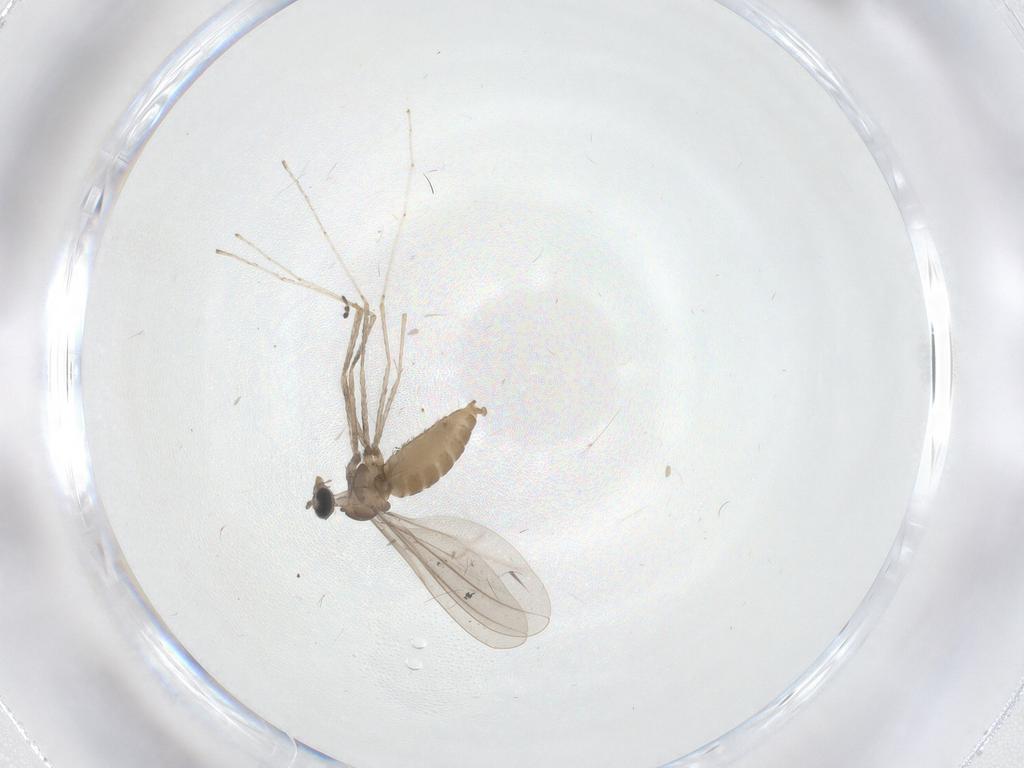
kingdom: Animalia
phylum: Arthropoda
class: Insecta
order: Diptera
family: Cecidomyiidae
